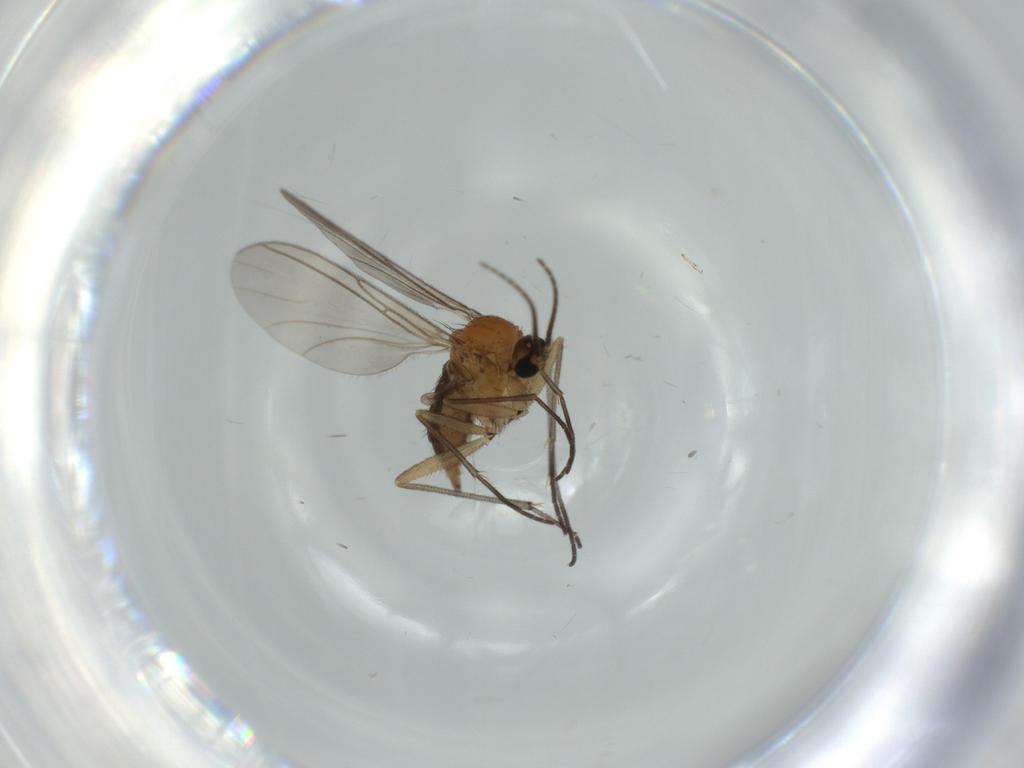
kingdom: Animalia
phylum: Arthropoda
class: Insecta
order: Diptera
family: Sciaridae
